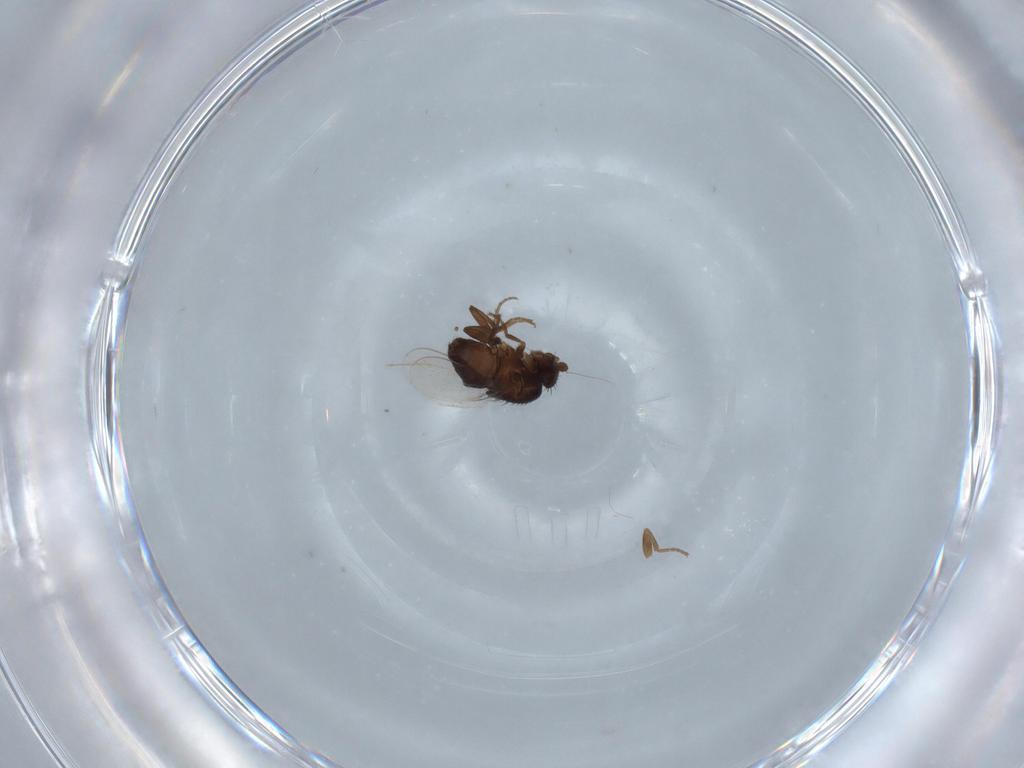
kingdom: Animalia
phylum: Arthropoda
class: Insecta
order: Diptera
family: Sphaeroceridae
